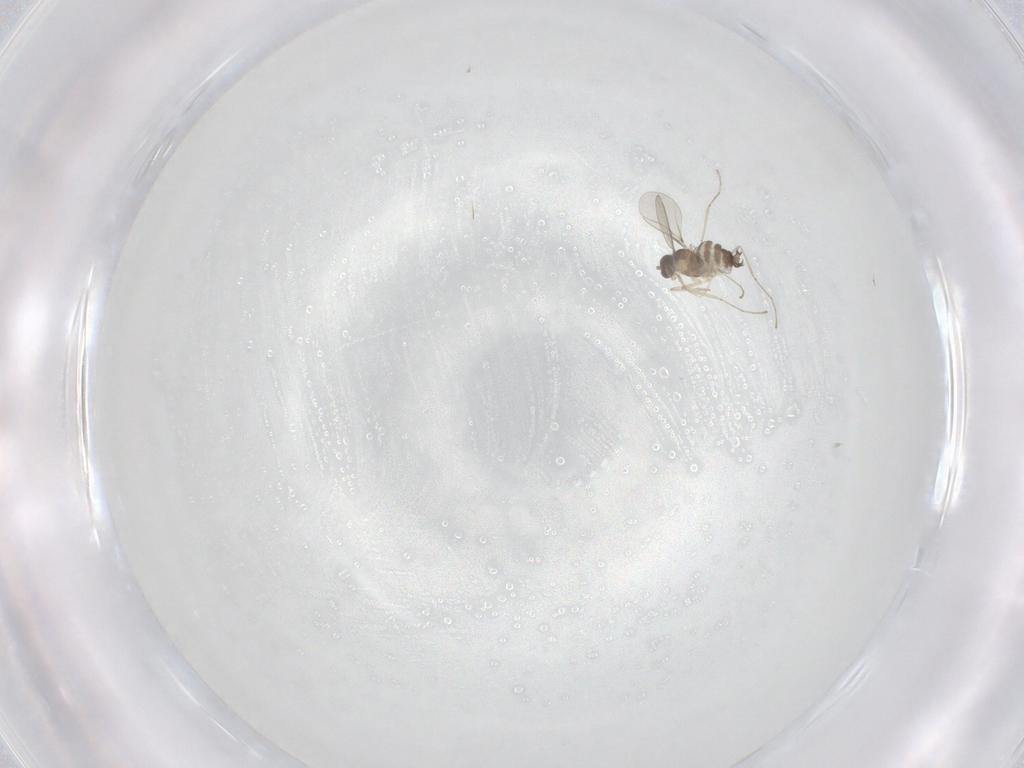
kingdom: Animalia
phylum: Arthropoda
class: Insecta
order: Diptera
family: Cecidomyiidae
